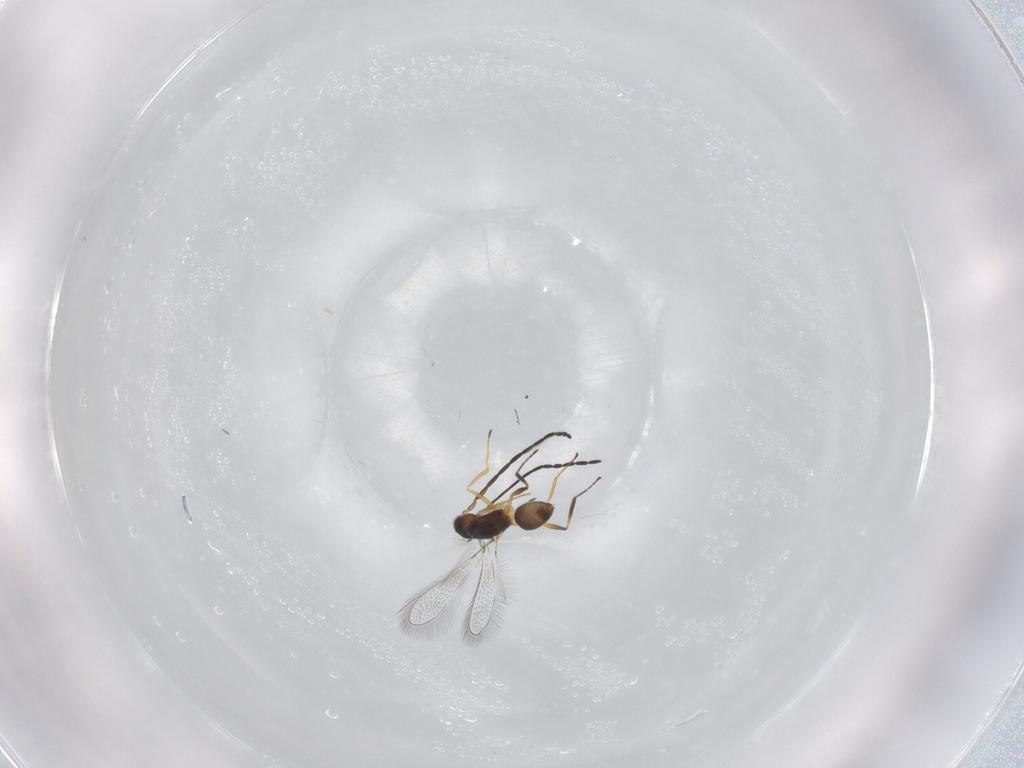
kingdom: Animalia
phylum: Arthropoda
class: Insecta
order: Hymenoptera
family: Mymaridae
